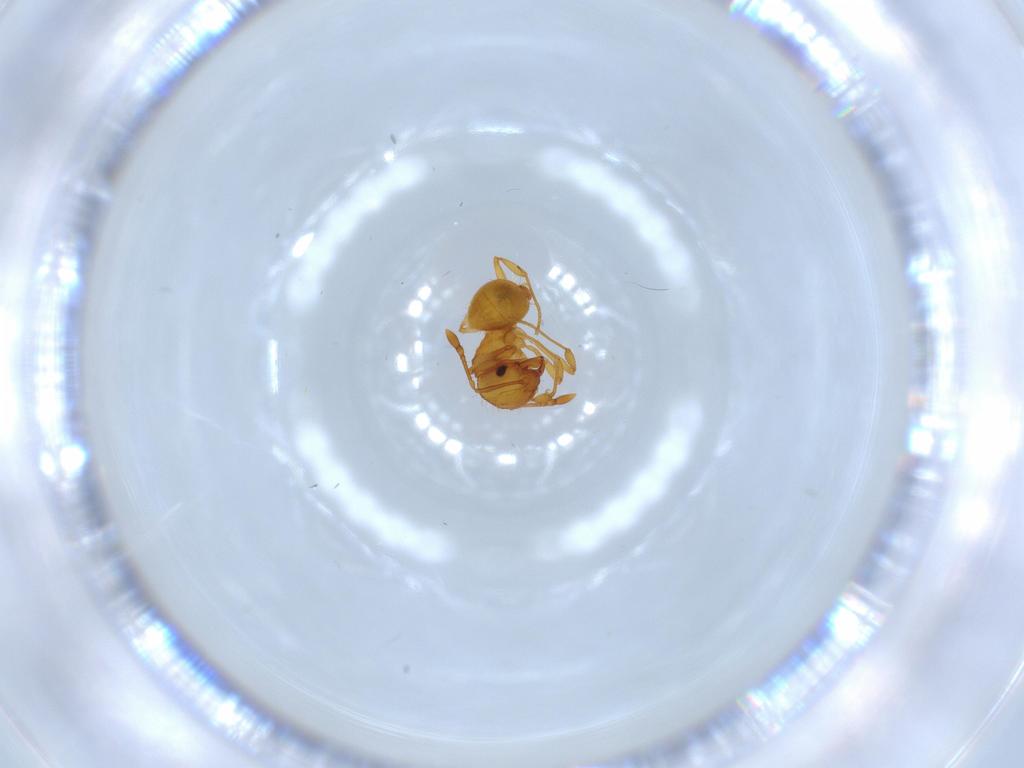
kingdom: Animalia
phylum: Arthropoda
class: Insecta
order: Hymenoptera
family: Formicidae
